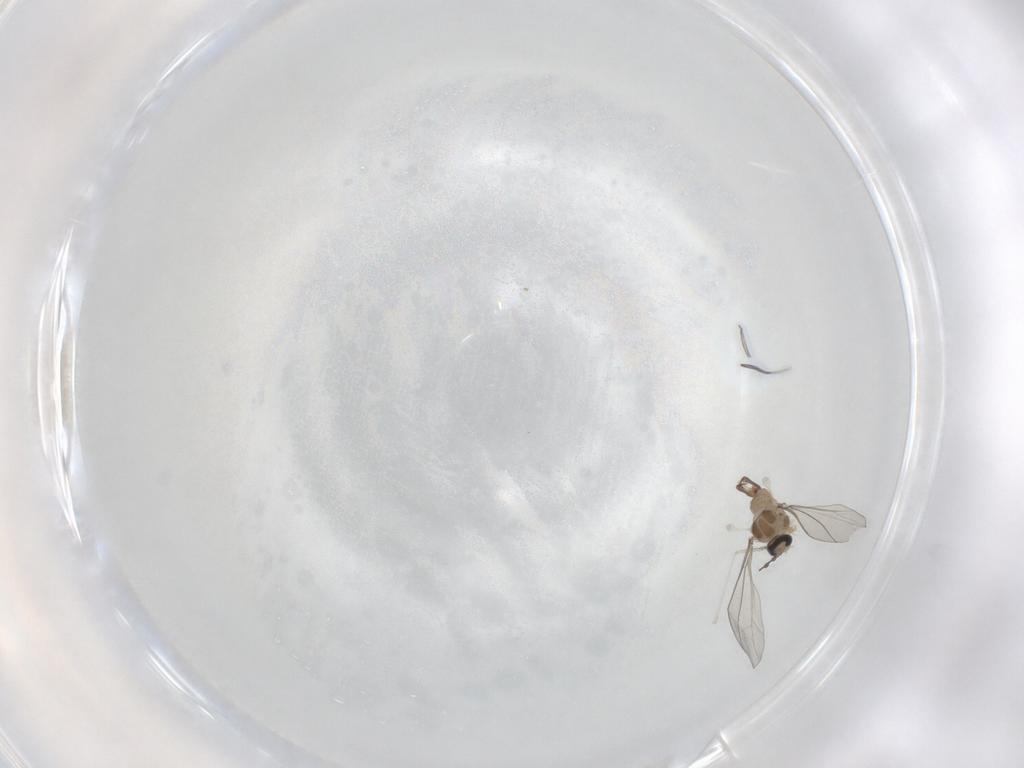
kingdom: Animalia
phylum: Arthropoda
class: Insecta
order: Diptera
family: Cecidomyiidae
